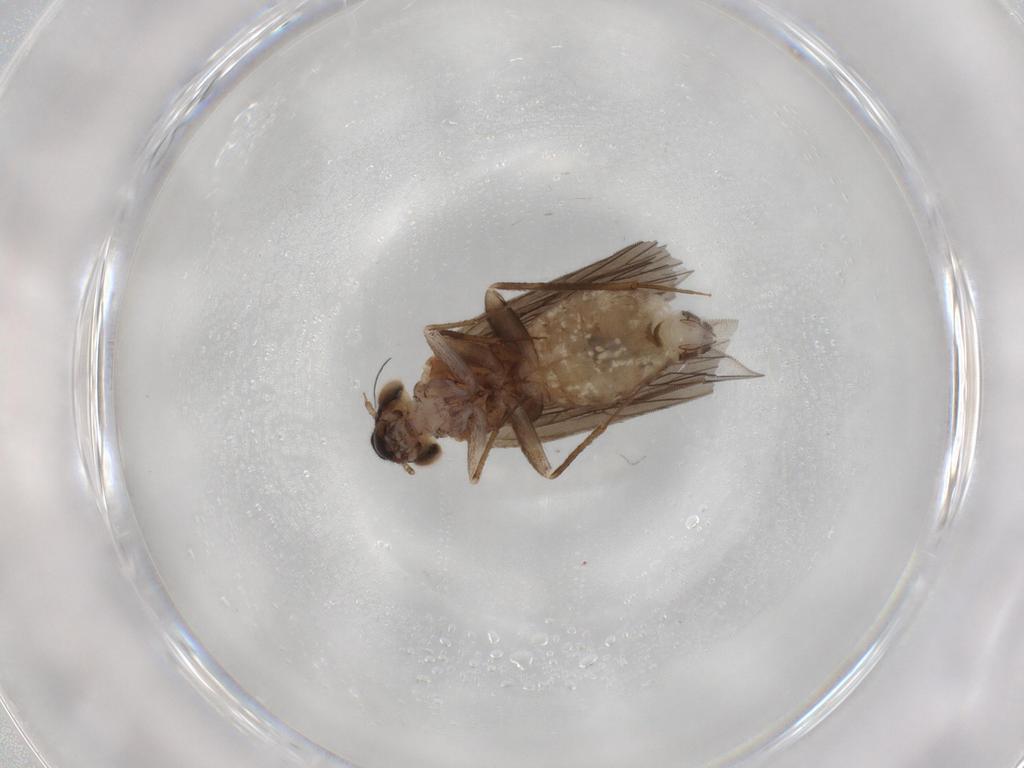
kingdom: Animalia
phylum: Arthropoda
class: Insecta
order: Psocodea
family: Lepidopsocidae
